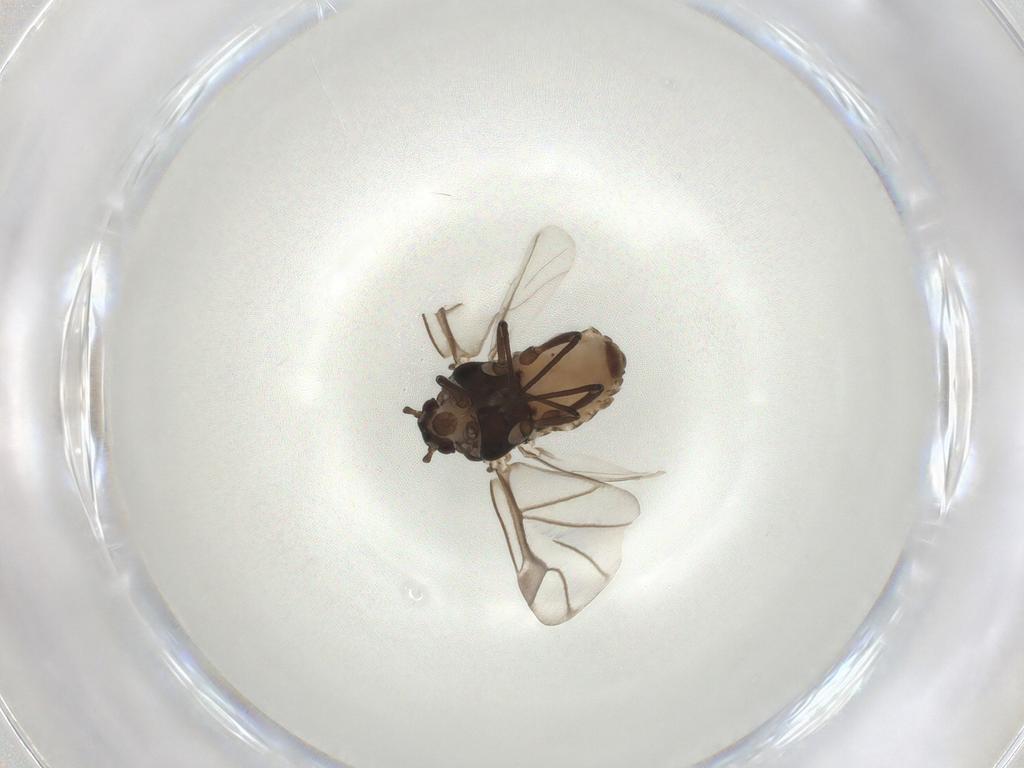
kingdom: Animalia
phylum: Arthropoda
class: Insecta
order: Hemiptera
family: Aphididae
